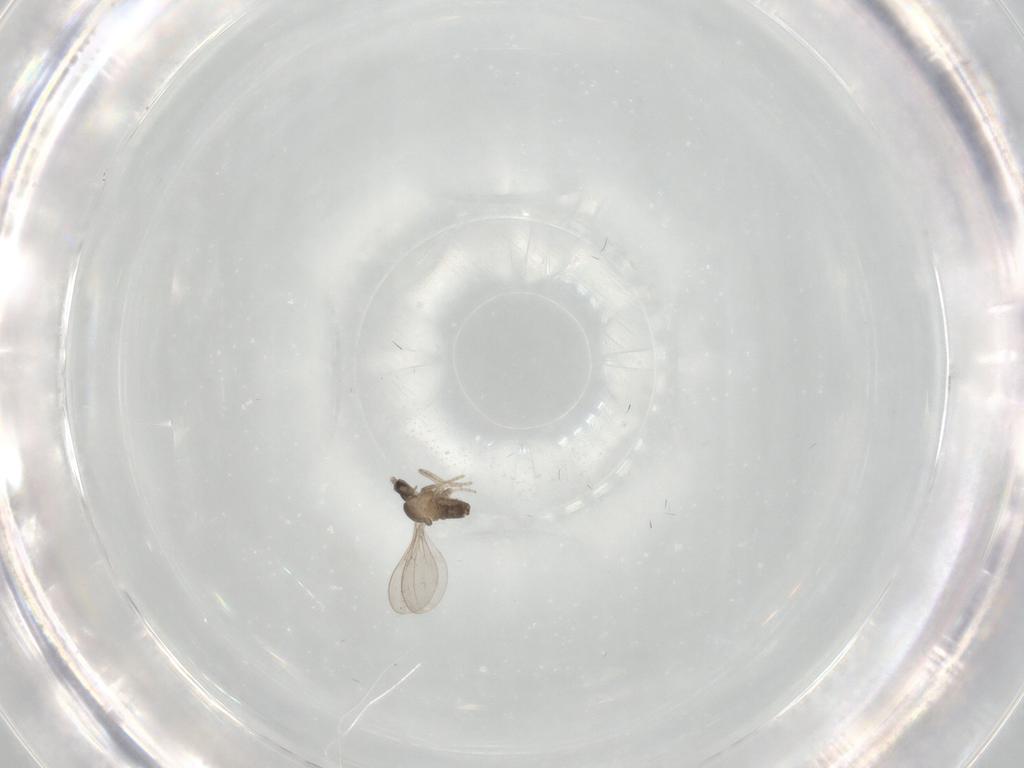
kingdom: Animalia
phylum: Arthropoda
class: Insecta
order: Diptera
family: Cecidomyiidae
